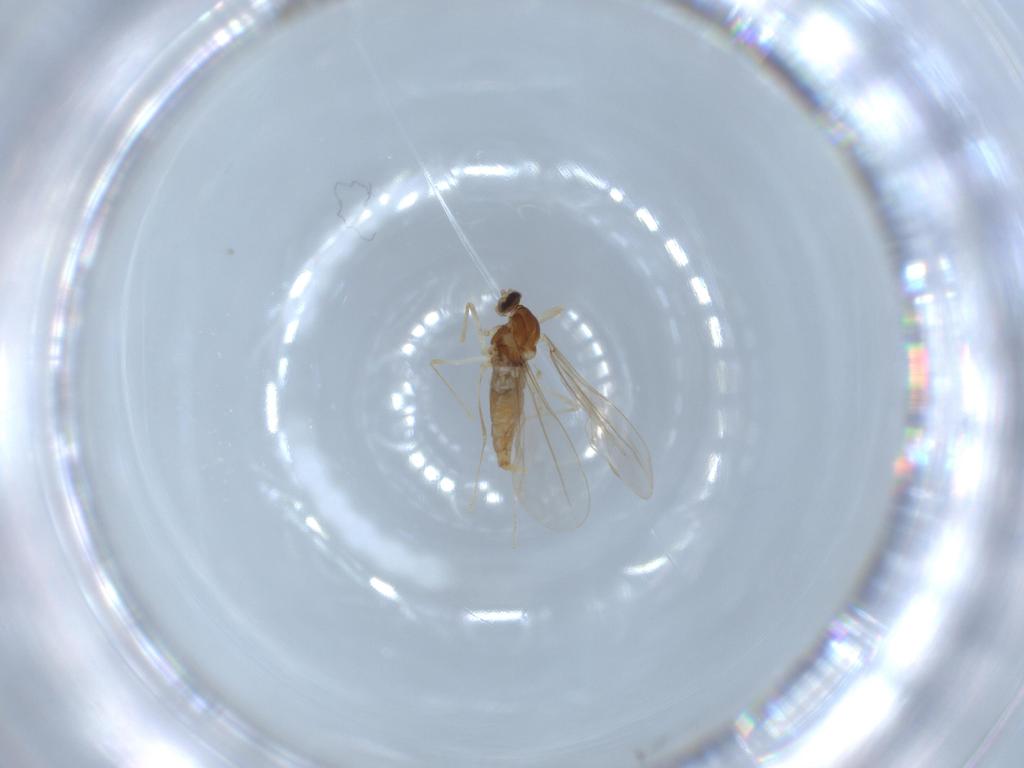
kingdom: Animalia
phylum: Arthropoda
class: Insecta
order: Diptera
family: Cecidomyiidae
